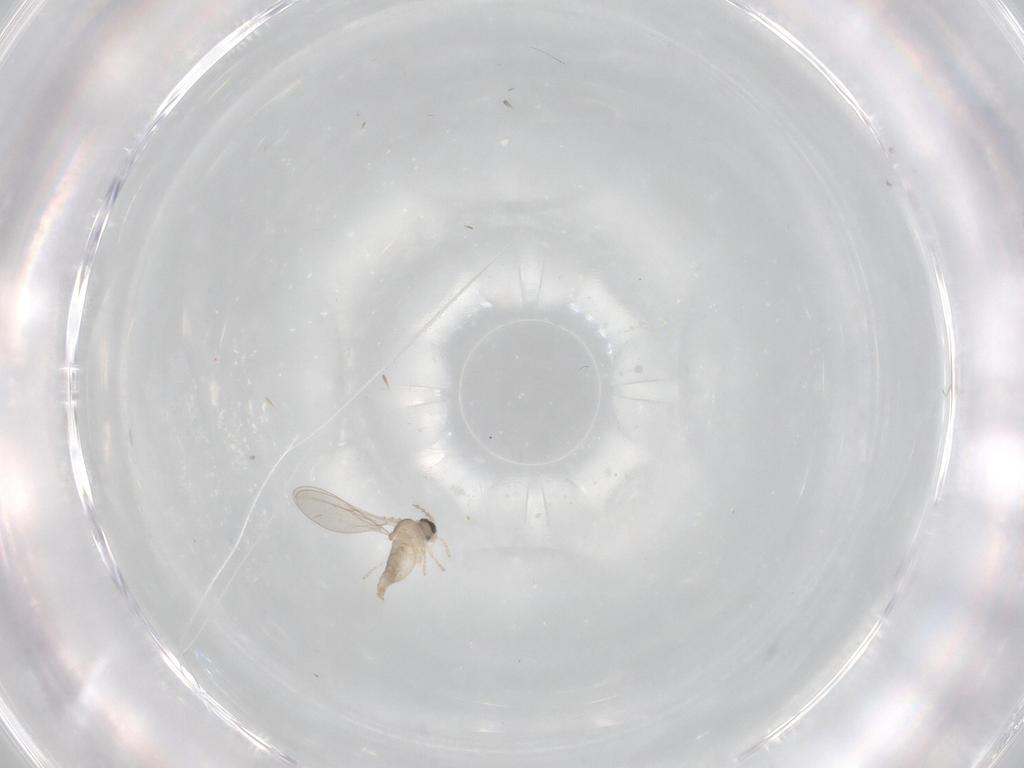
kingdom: Animalia
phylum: Arthropoda
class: Insecta
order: Diptera
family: Cecidomyiidae
